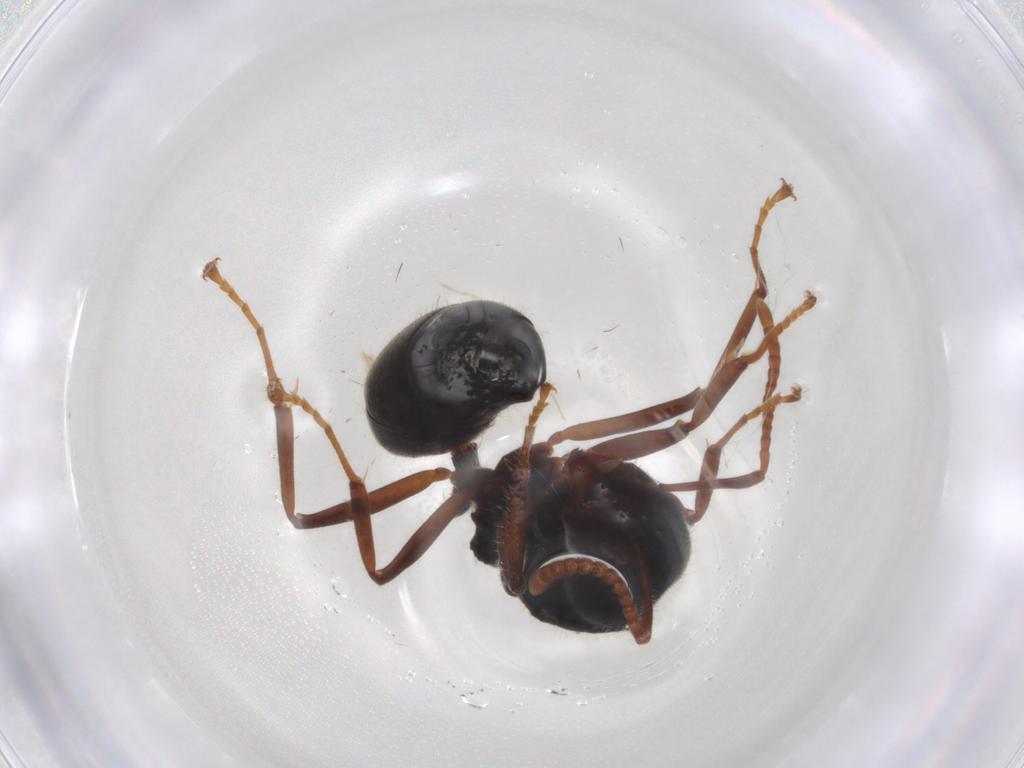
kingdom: Animalia
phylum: Arthropoda
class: Insecta
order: Hymenoptera
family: Formicidae
